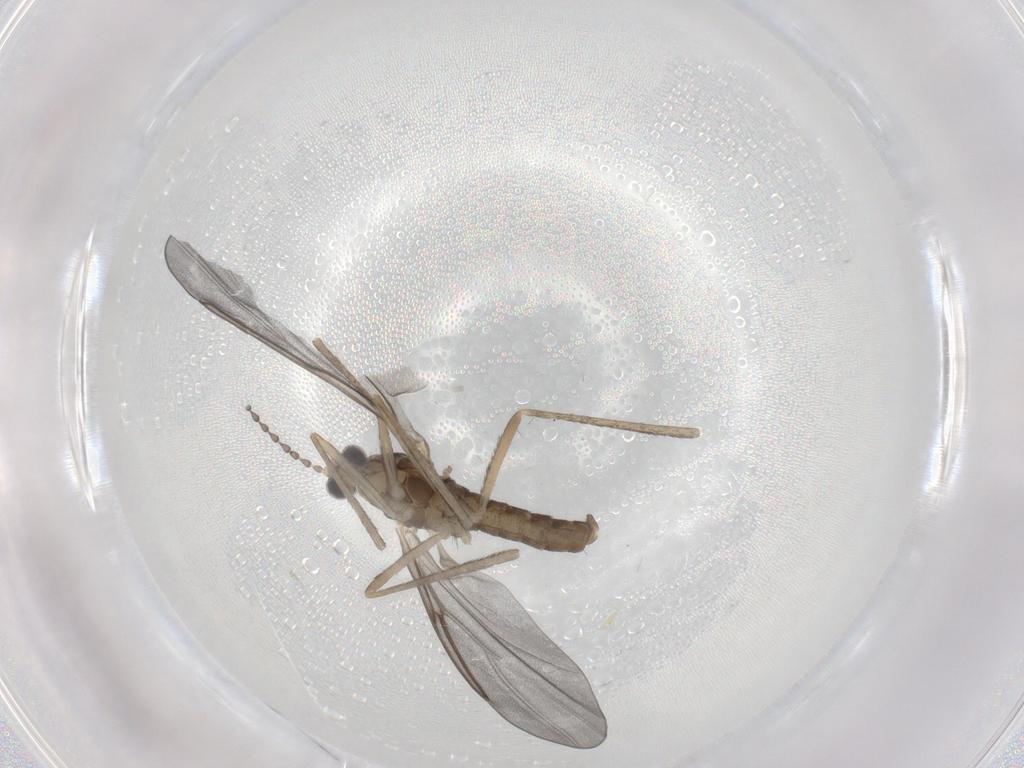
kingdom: Animalia
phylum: Arthropoda
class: Insecta
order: Diptera
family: Cecidomyiidae
